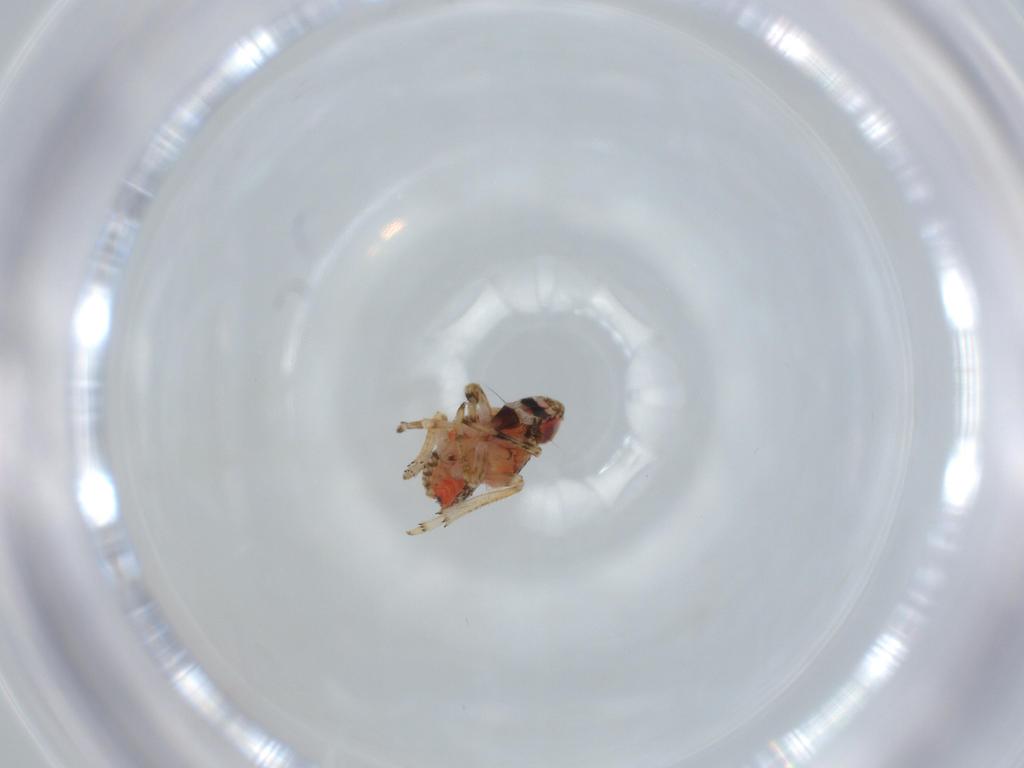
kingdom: Animalia
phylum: Arthropoda
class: Insecta
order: Hemiptera
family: Issidae
